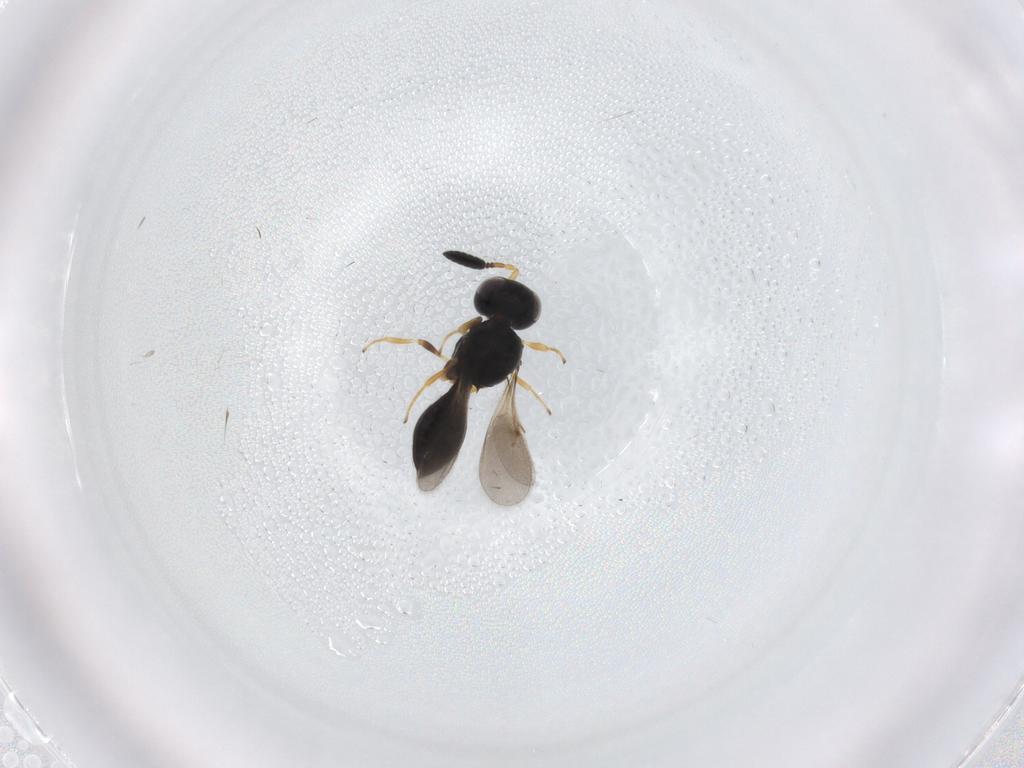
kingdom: Animalia
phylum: Arthropoda
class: Insecta
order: Hymenoptera
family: Scelionidae
